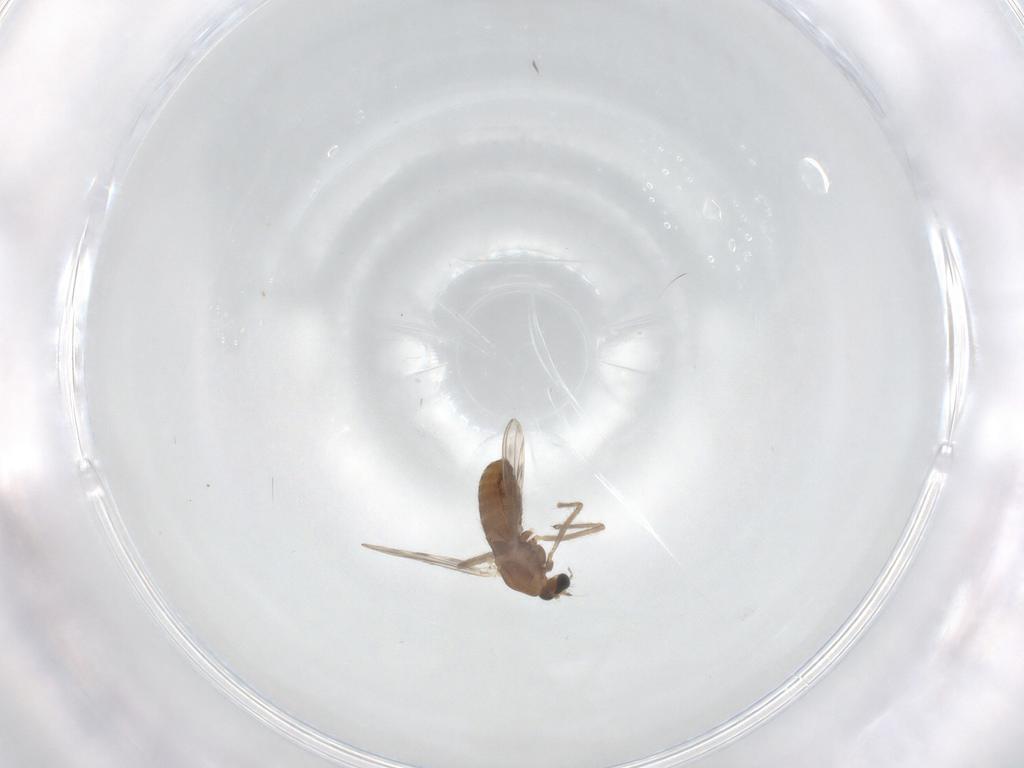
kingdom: Animalia
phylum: Arthropoda
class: Insecta
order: Diptera
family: Chironomidae
